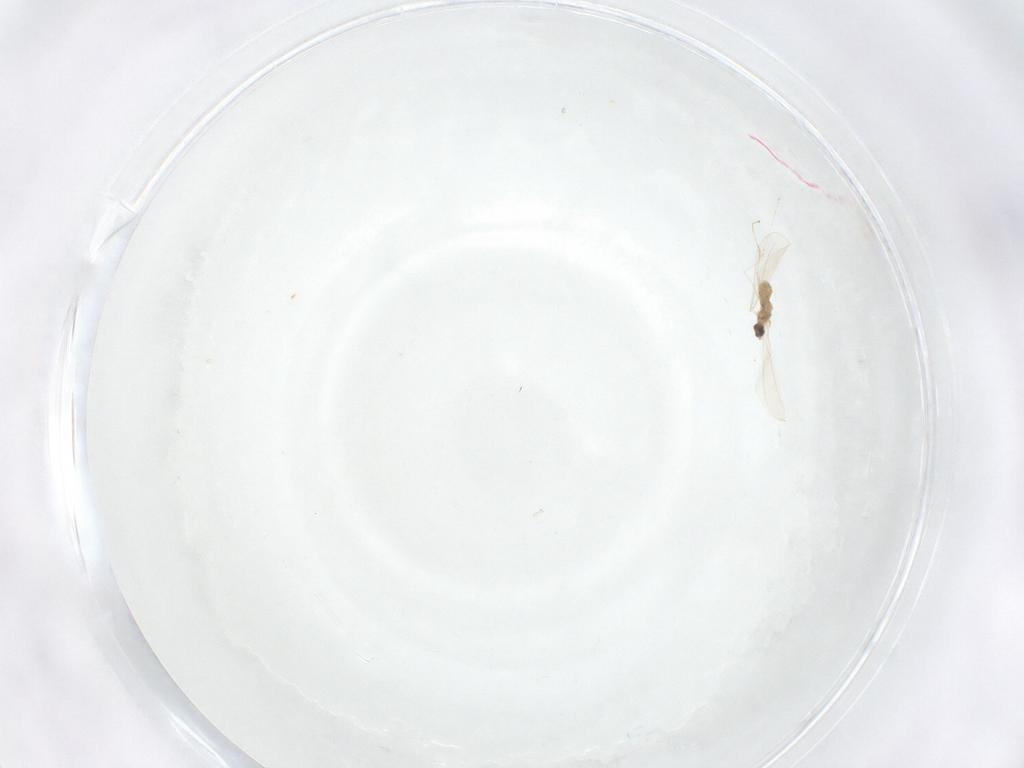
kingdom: Animalia
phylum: Arthropoda
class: Insecta
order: Diptera
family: Cecidomyiidae
